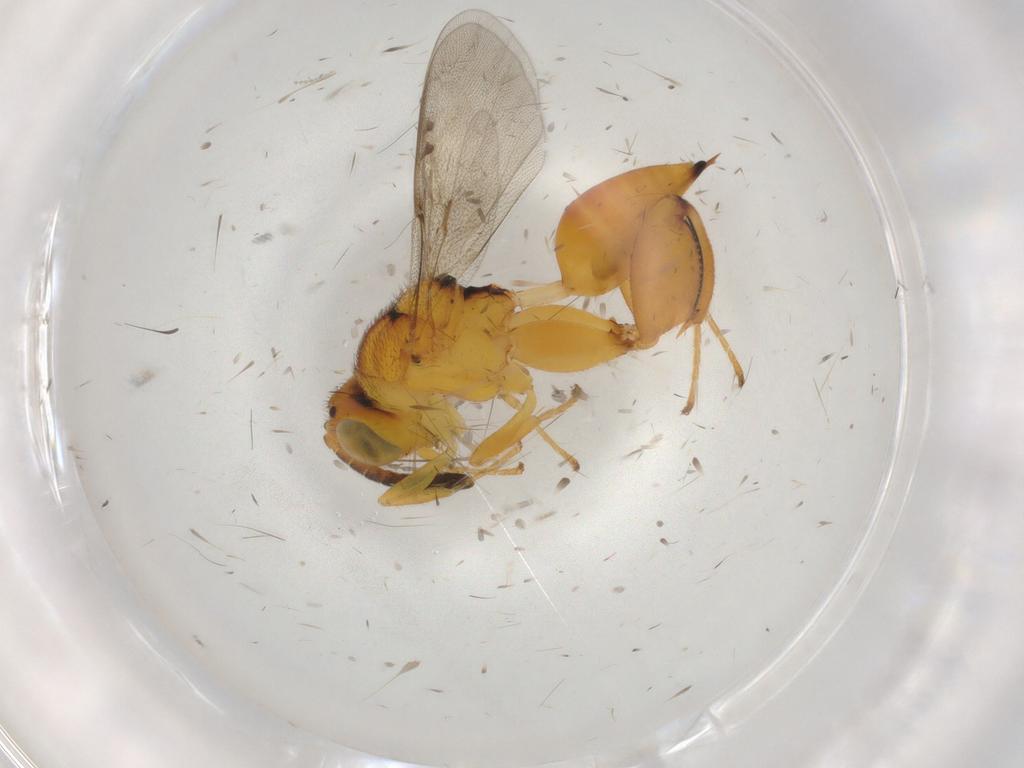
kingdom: Animalia
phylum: Arthropoda
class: Insecta
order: Hymenoptera
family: Chalcididae
